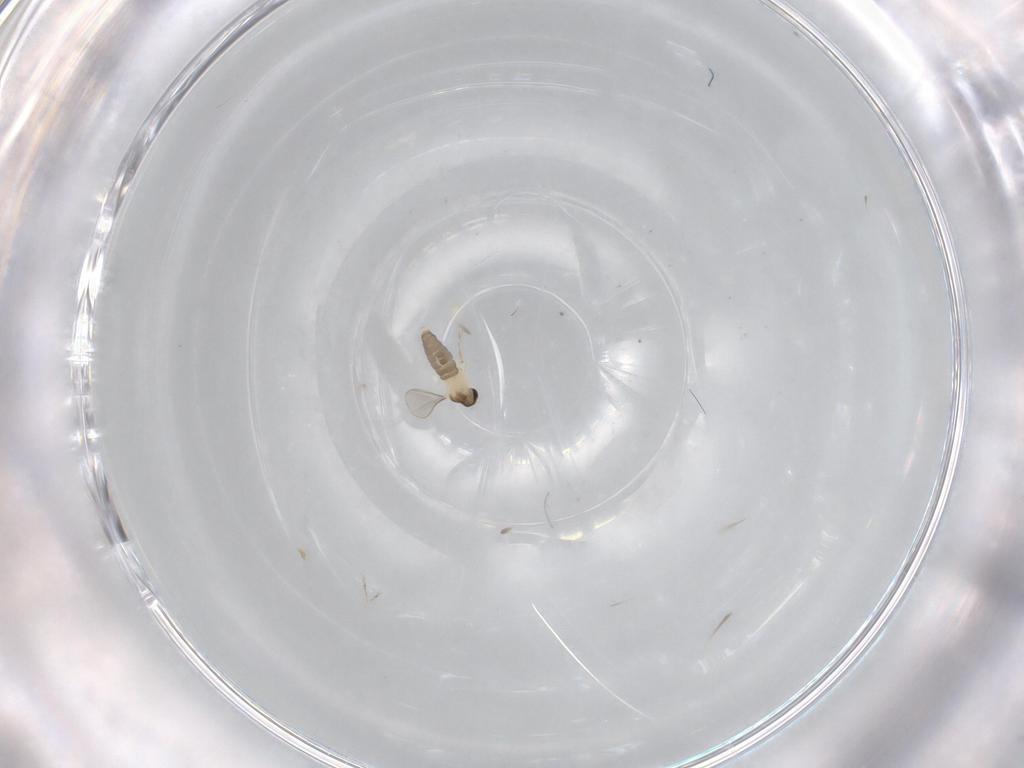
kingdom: Animalia
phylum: Arthropoda
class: Insecta
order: Diptera
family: Cecidomyiidae
